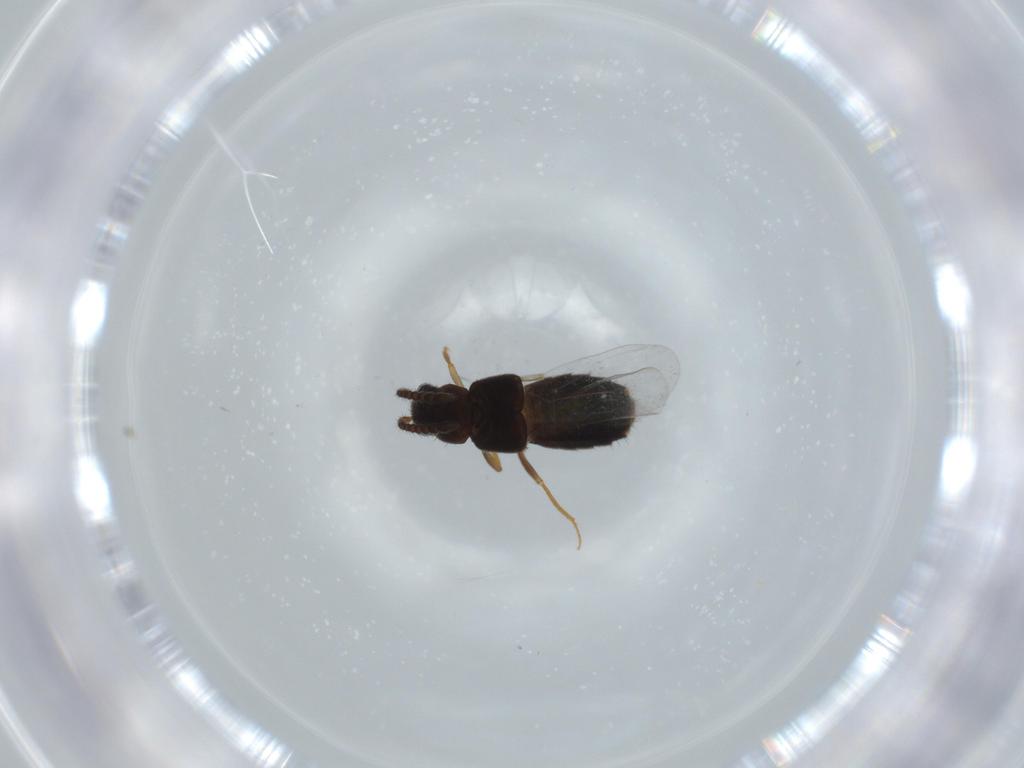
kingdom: Animalia
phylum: Arthropoda
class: Insecta
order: Coleoptera
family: Staphylinidae
